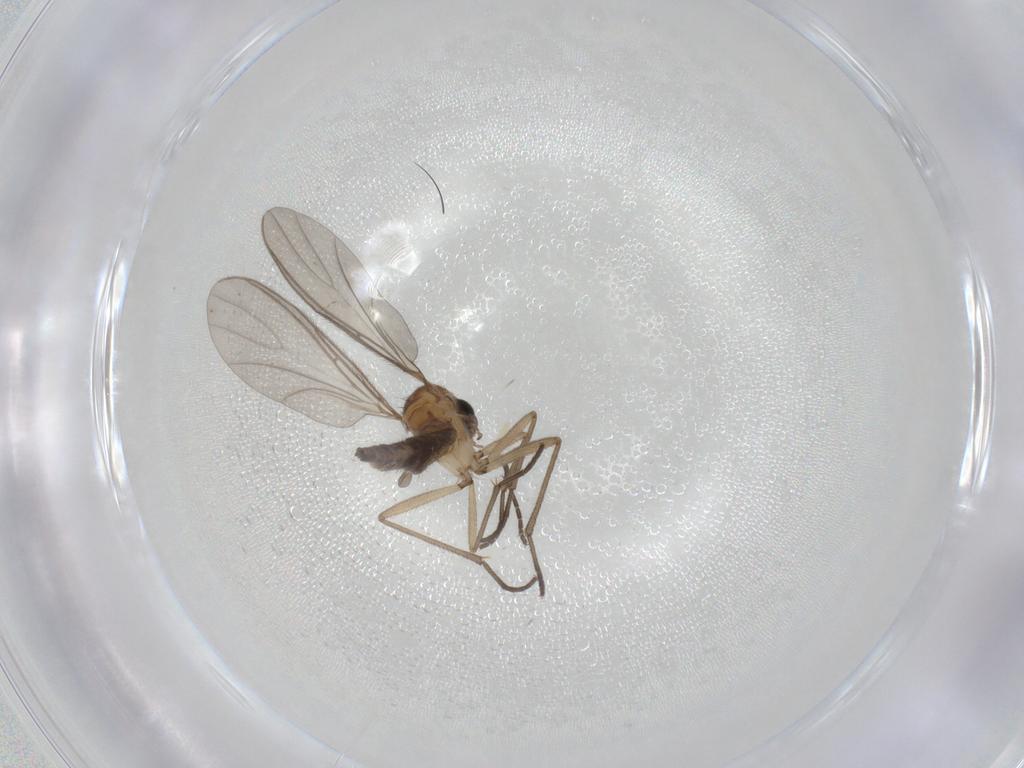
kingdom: Animalia
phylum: Arthropoda
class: Insecta
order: Diptera
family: Sciaridae
